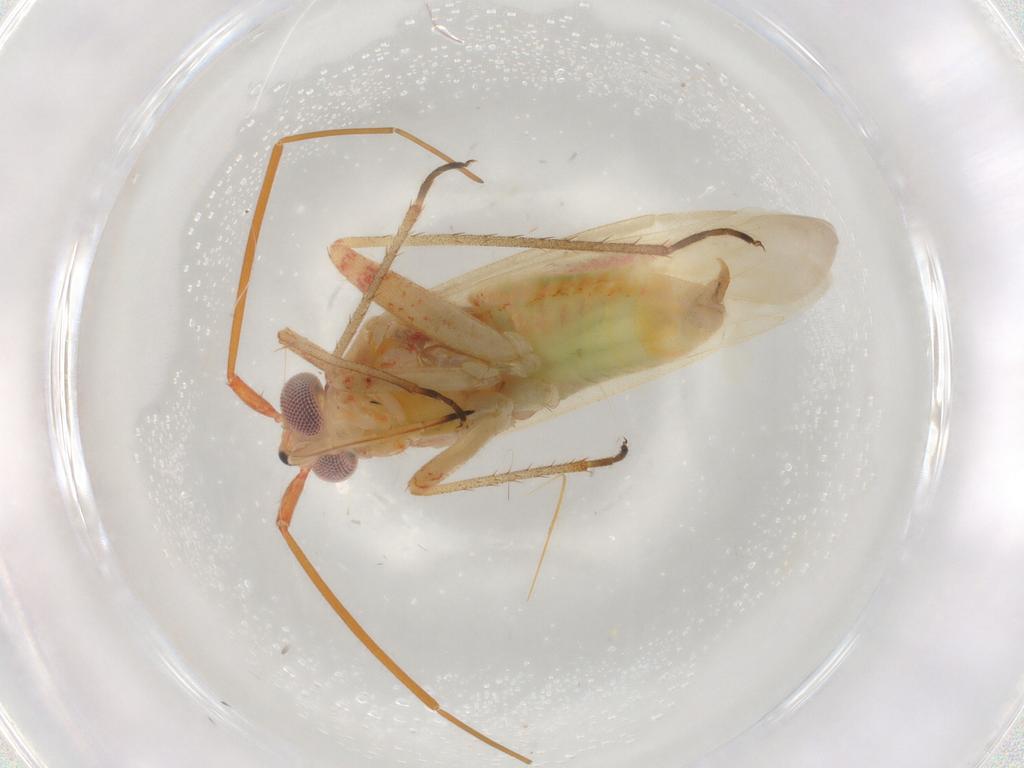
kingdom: Animalia
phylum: Arthropoda
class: Insecta
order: Hemiptera
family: Miridae
